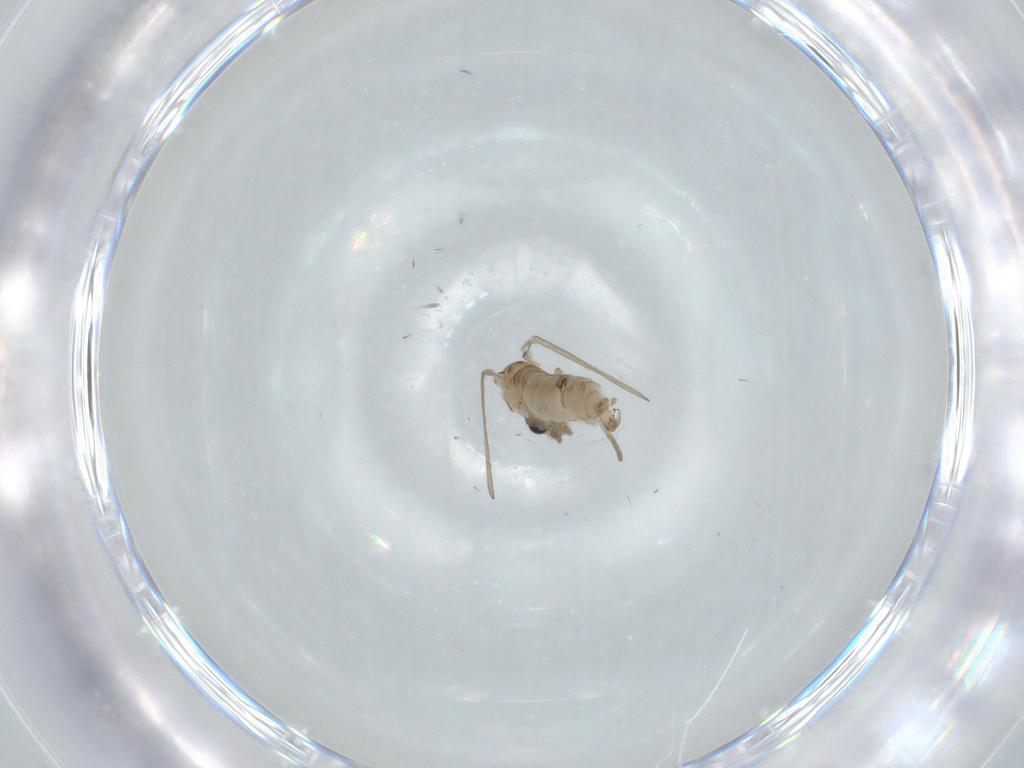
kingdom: Animalia
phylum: Arthropoda
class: Insecta
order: Diptera
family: Psychodidae
